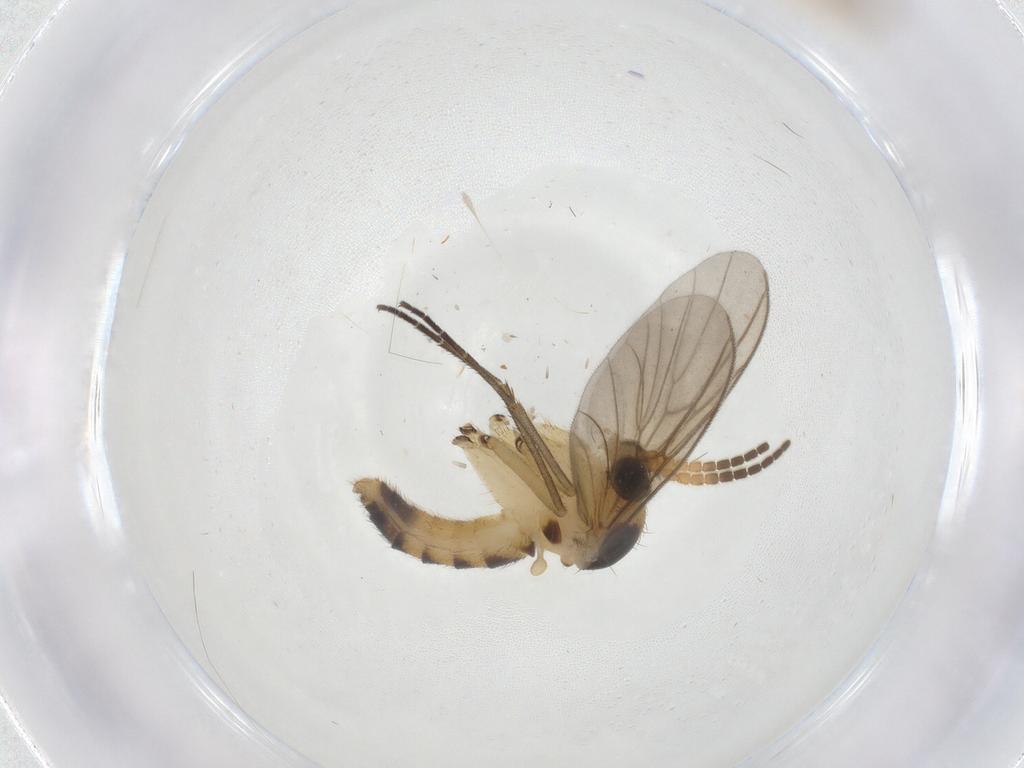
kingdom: Animalia
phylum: Arthropoda
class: Insecta
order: Diptera
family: Mycetophilidae
